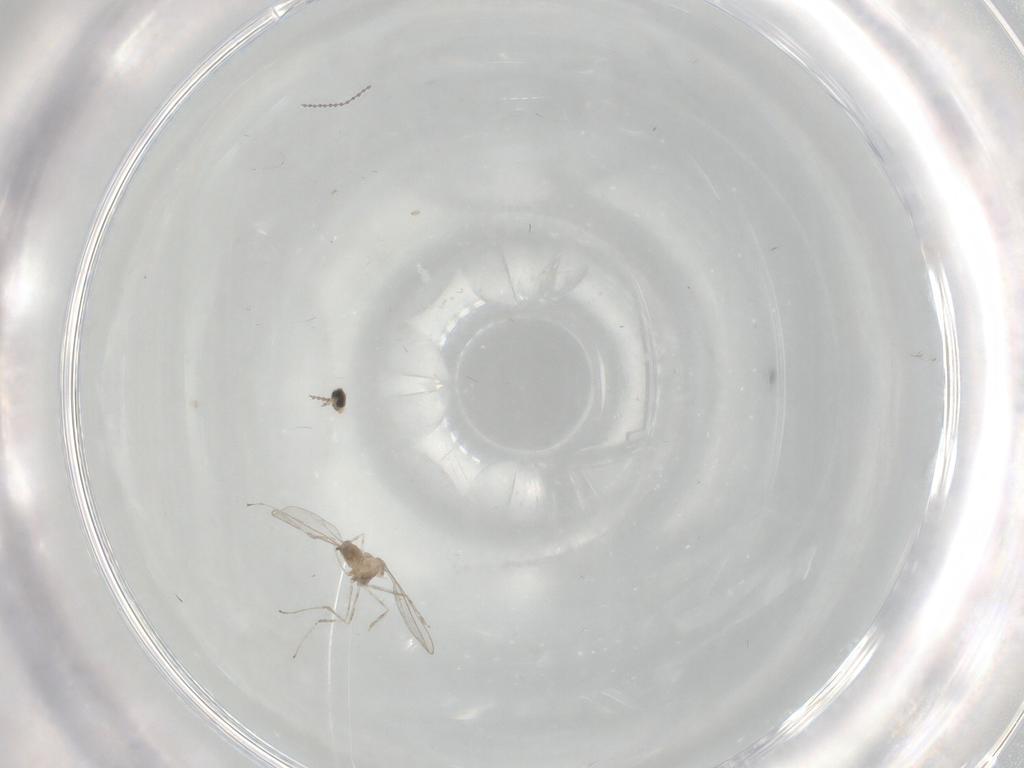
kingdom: Animalia
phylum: Arthropoda
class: Insecta
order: Diptera
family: Cecidomyiidae
